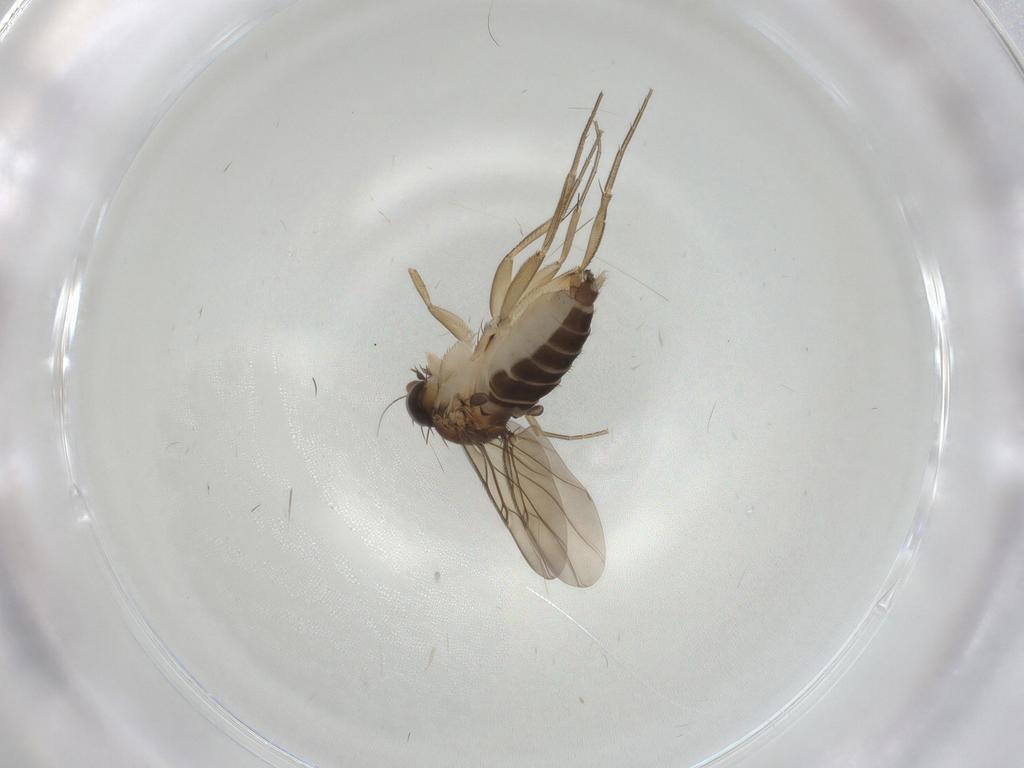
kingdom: Animalia
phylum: Arthropoda
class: Insecta
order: Diptera
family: Phoridae
